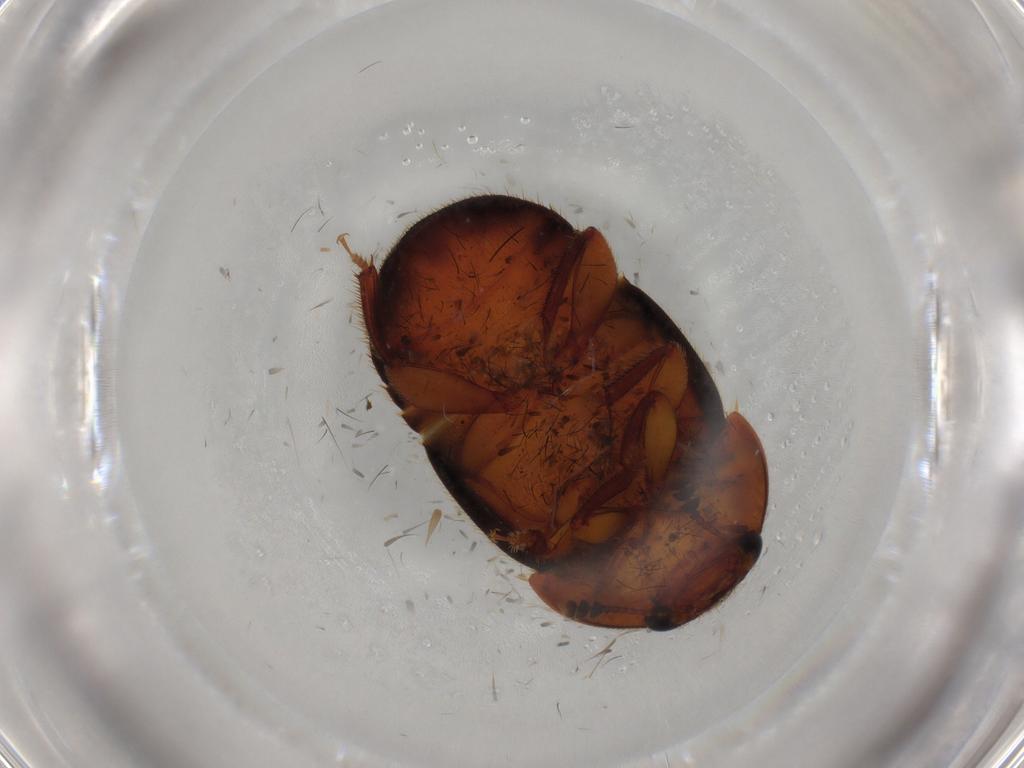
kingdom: Animalia
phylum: Arthropoda
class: Insecta
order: Coleoptera
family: Nitidulidae
